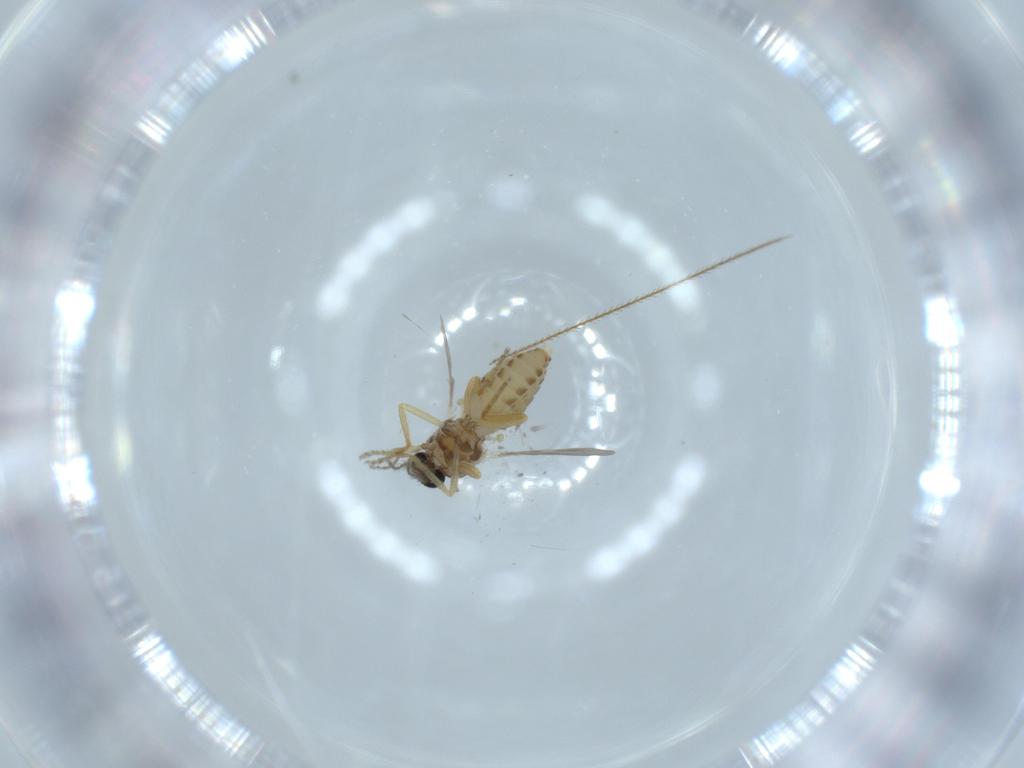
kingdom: Animalia
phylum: Arthropoda
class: Insecta
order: Diptera
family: Ceratopogonidae
